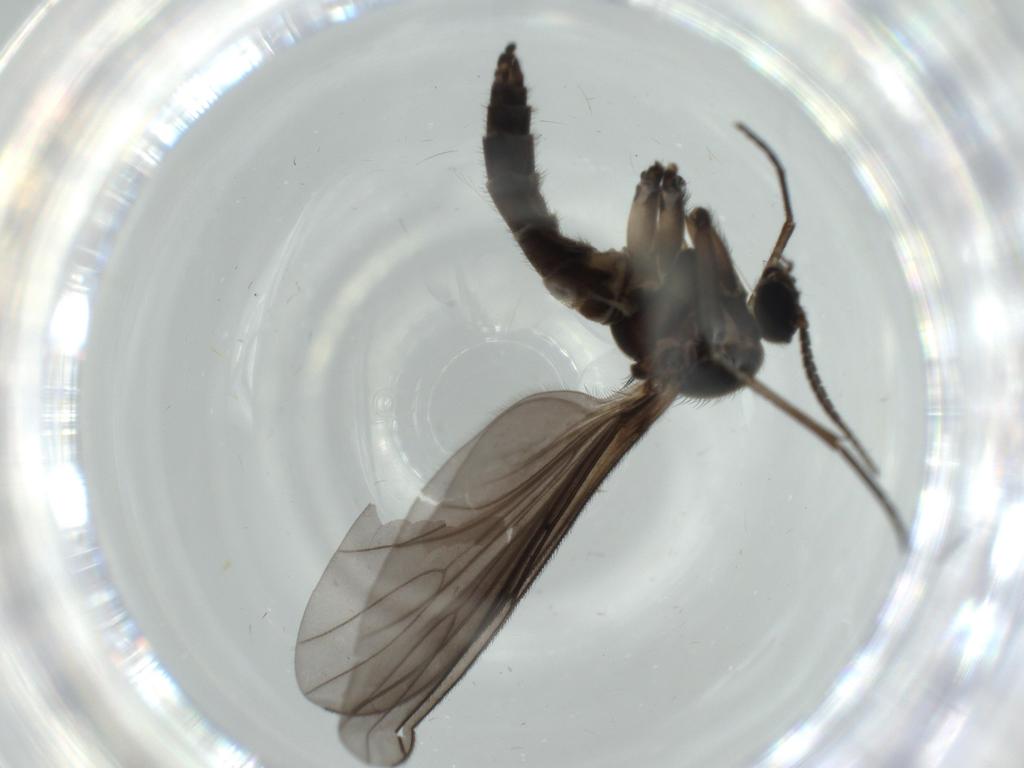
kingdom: Animalia
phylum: Arthropoda
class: Insecta
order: Diptera
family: Sciaridae
